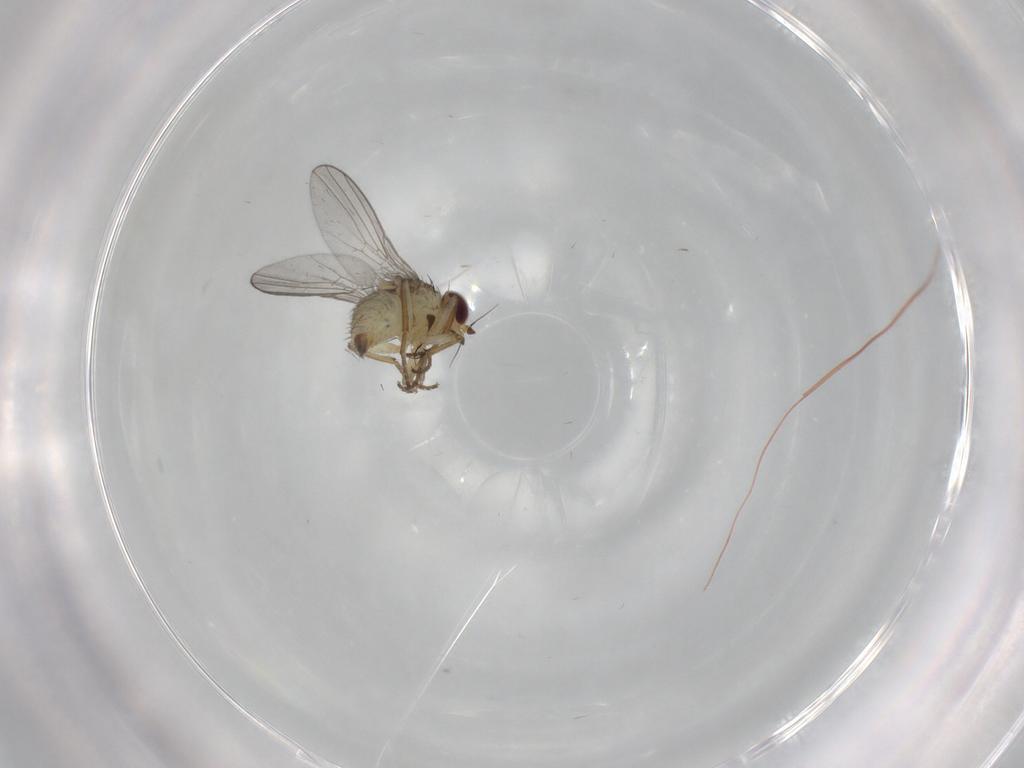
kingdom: Animalia
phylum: Arthropoda
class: Insecta
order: Diptera
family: Agromyzidae
